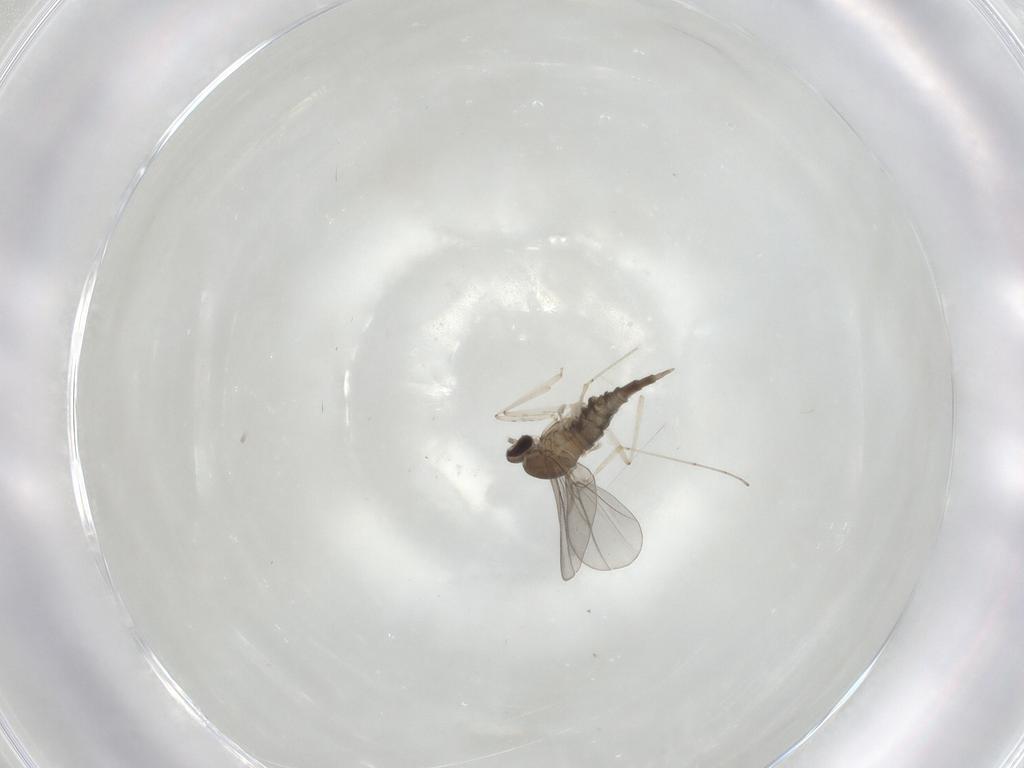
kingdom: Animalia
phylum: Arthropoda
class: Insecta
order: Diptera
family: Cecidomyiidae
